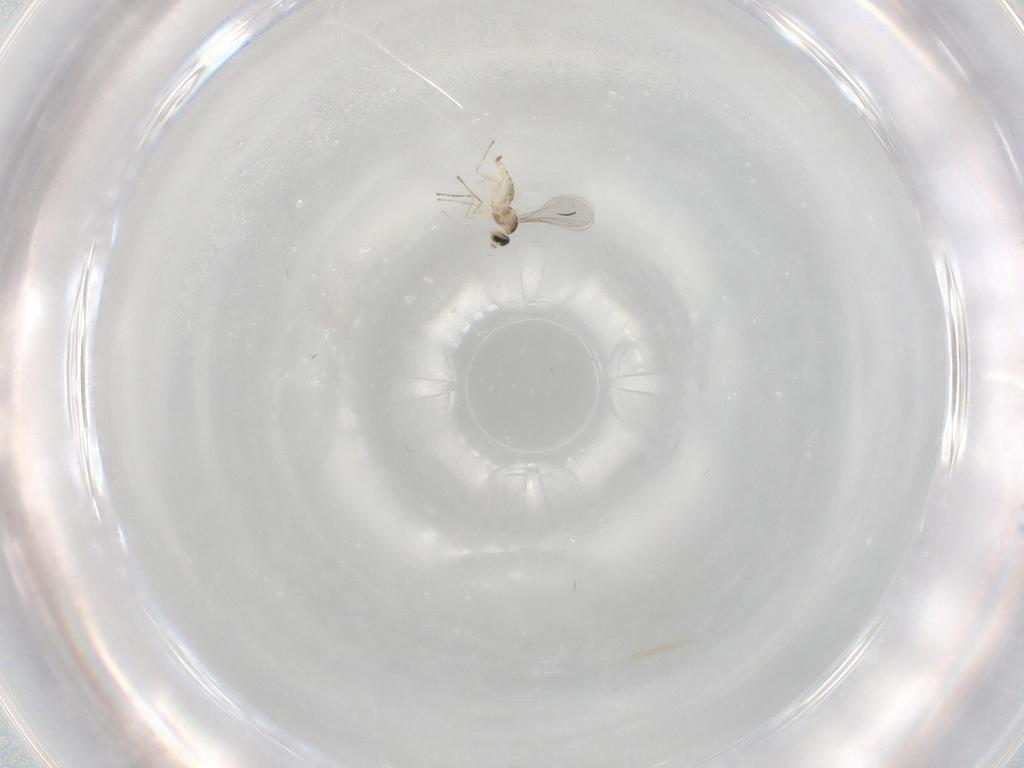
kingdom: Animalia
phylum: Arthropoda
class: Insecta
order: Diptera
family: Cecidomyiidae
